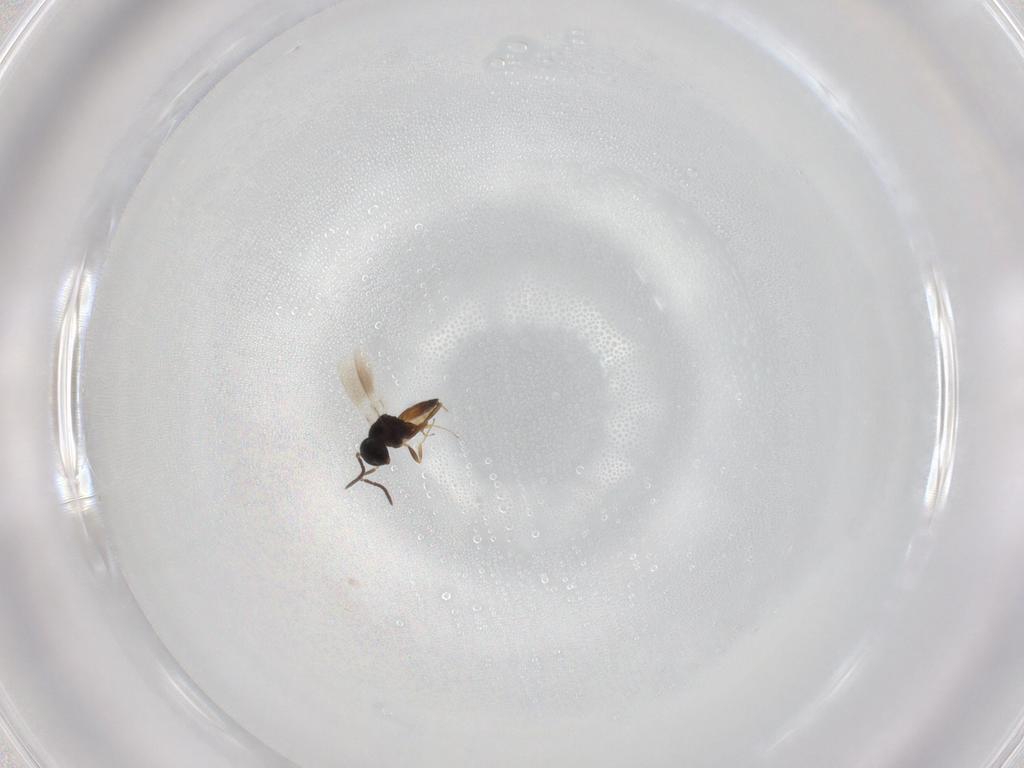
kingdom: Animalia
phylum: Arthropoda
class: Insecta
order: Hymenoptera
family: Scelionidae
